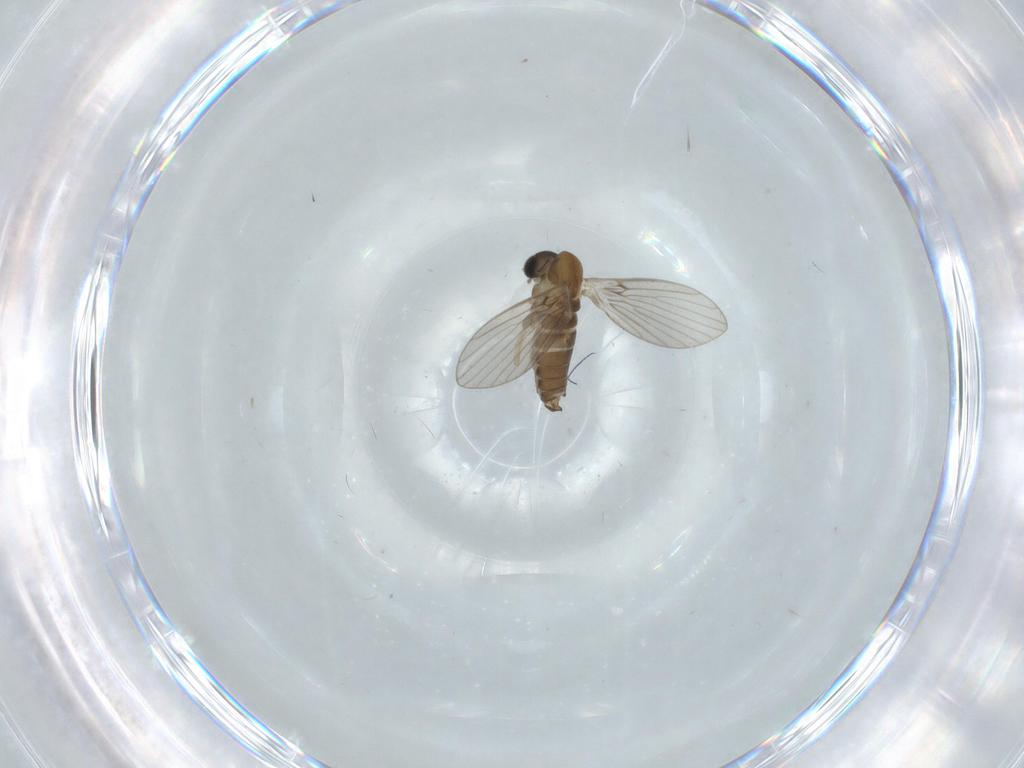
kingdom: Animalia
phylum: Arthropoda
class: Insecta
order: Diptera
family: Psychodidae
